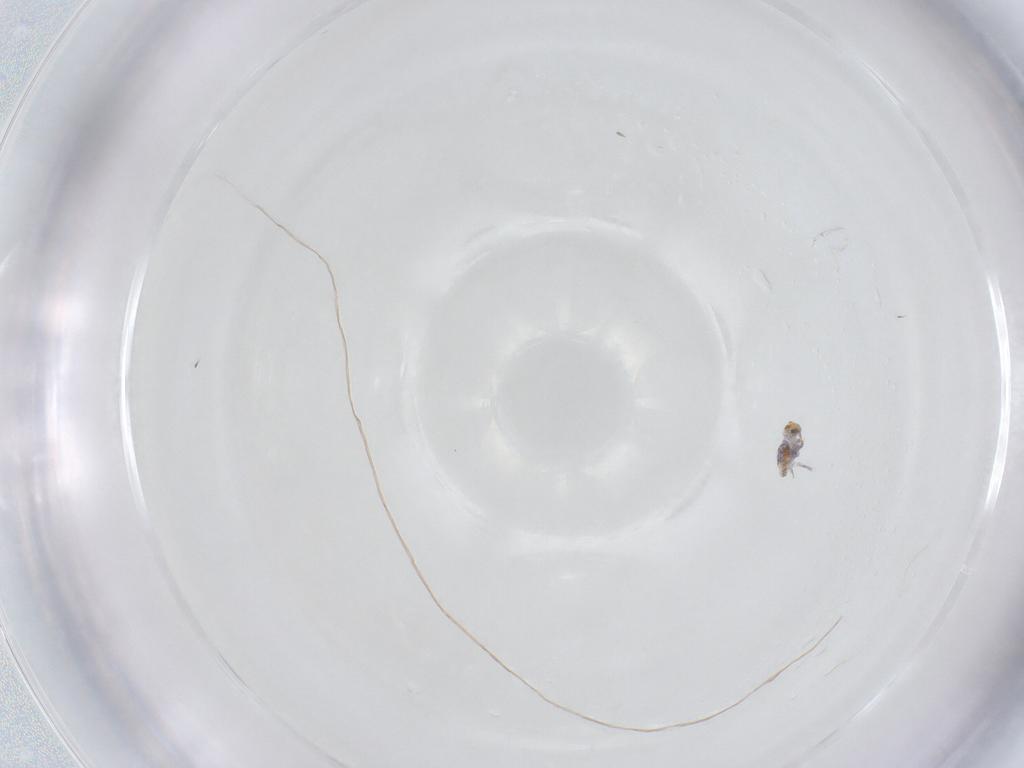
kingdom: Animalia
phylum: Arthropoda
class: Collembola
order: Symphypleona
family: Katiannidae
